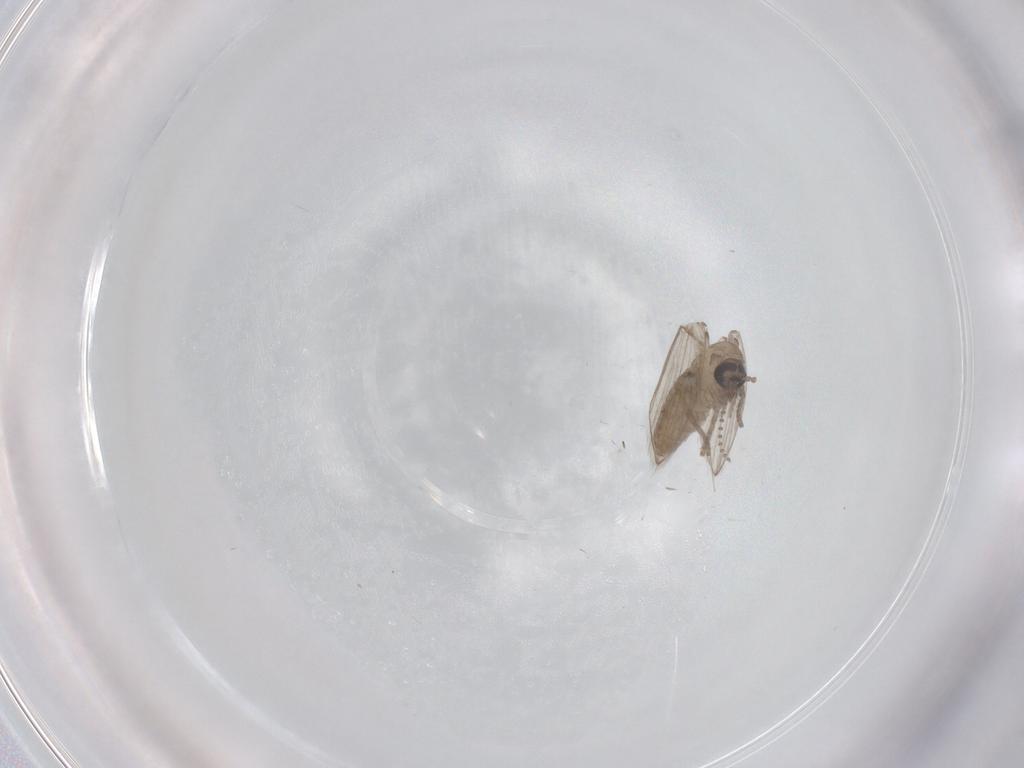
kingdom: Animalia
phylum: Arthropoda
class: Insecta
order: Diptera
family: Psychodidae
